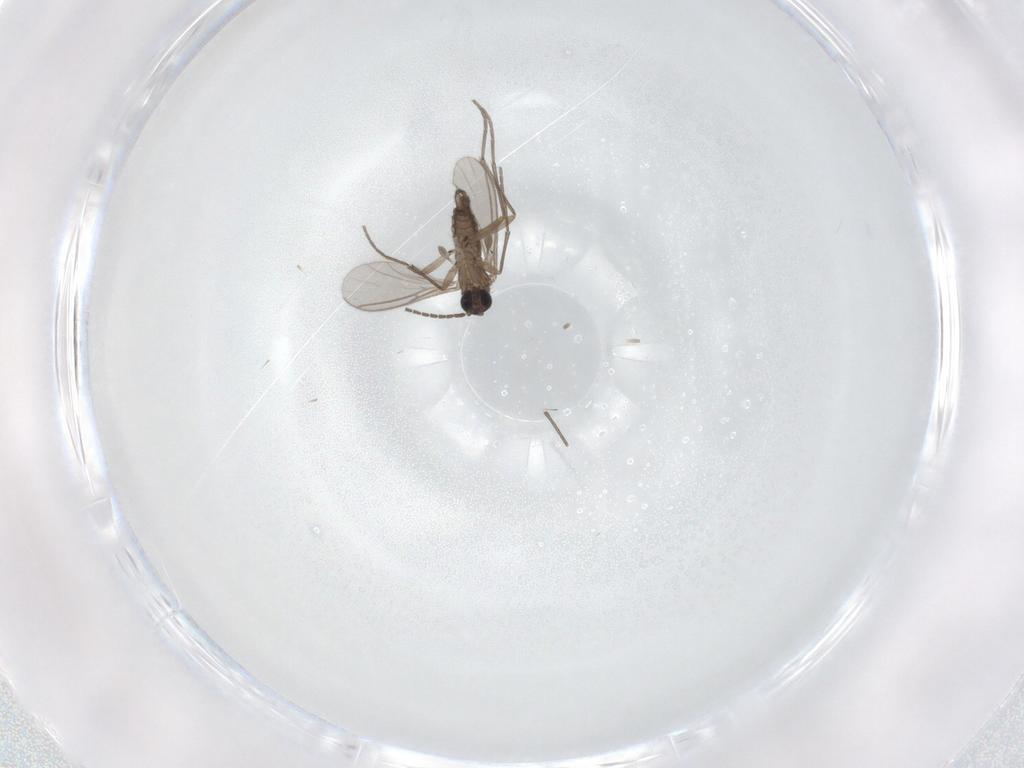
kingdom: Animalia
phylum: Arthropoda
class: Insecta
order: Diptera
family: Sciaridae
